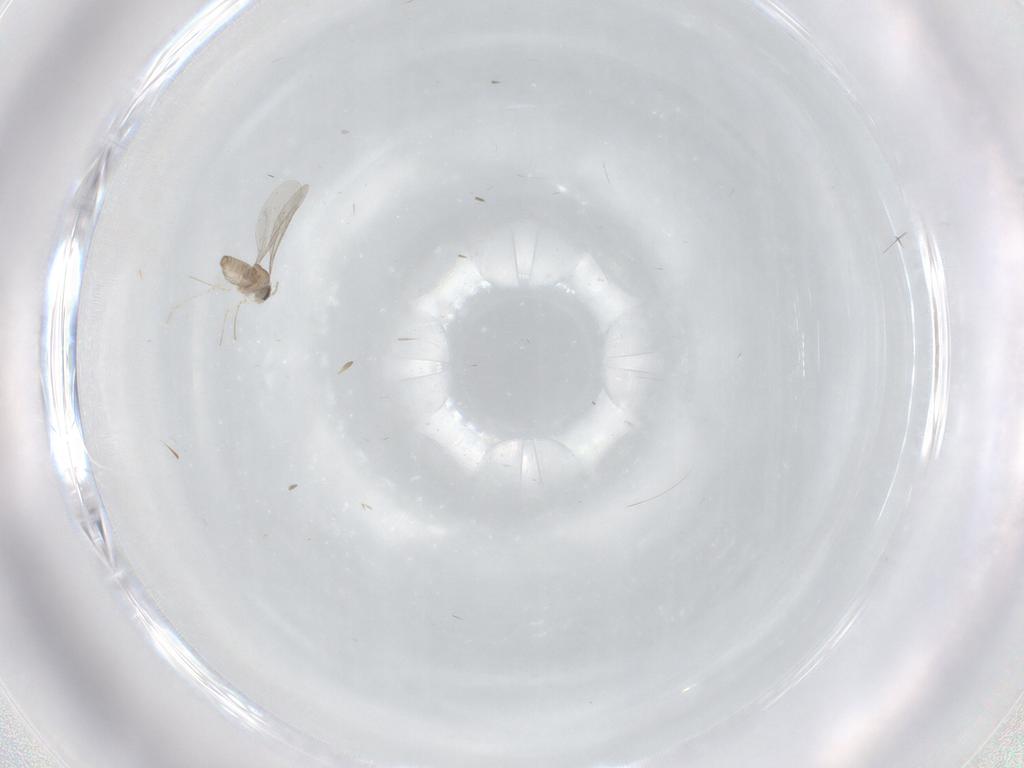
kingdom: Animalia
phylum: Arthropoda
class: Insecta
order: Diptera
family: Cecidomyiidae
